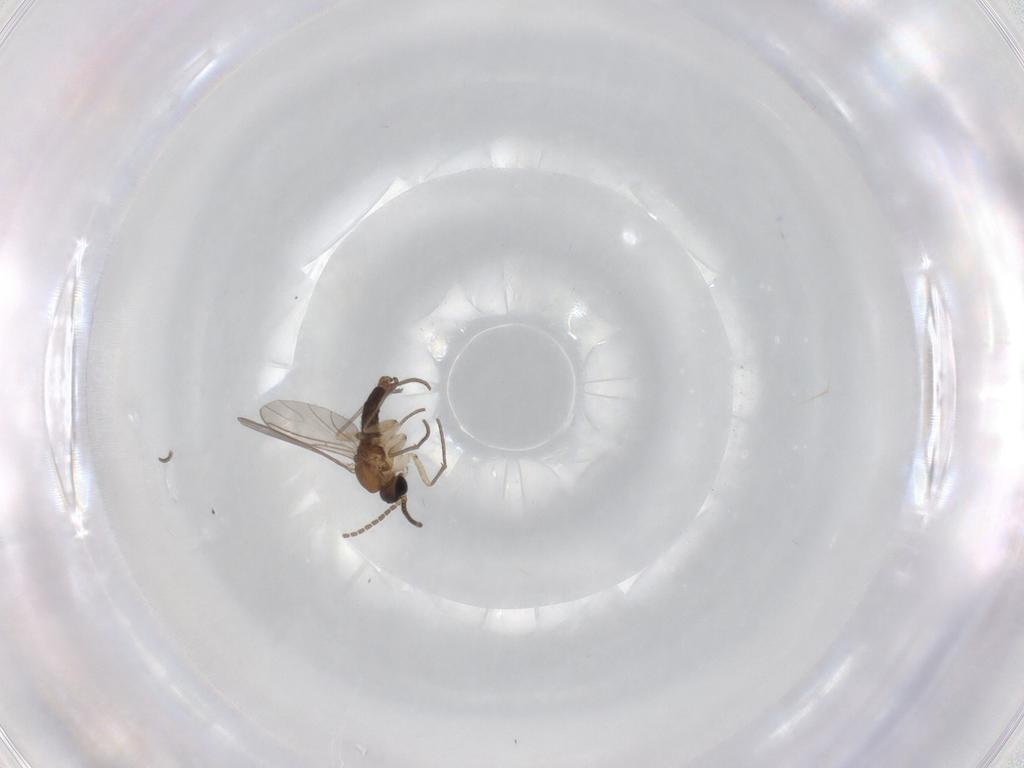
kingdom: Animalia
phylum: Arthropoda
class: Insecta
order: Diptera
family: Sciaridae
